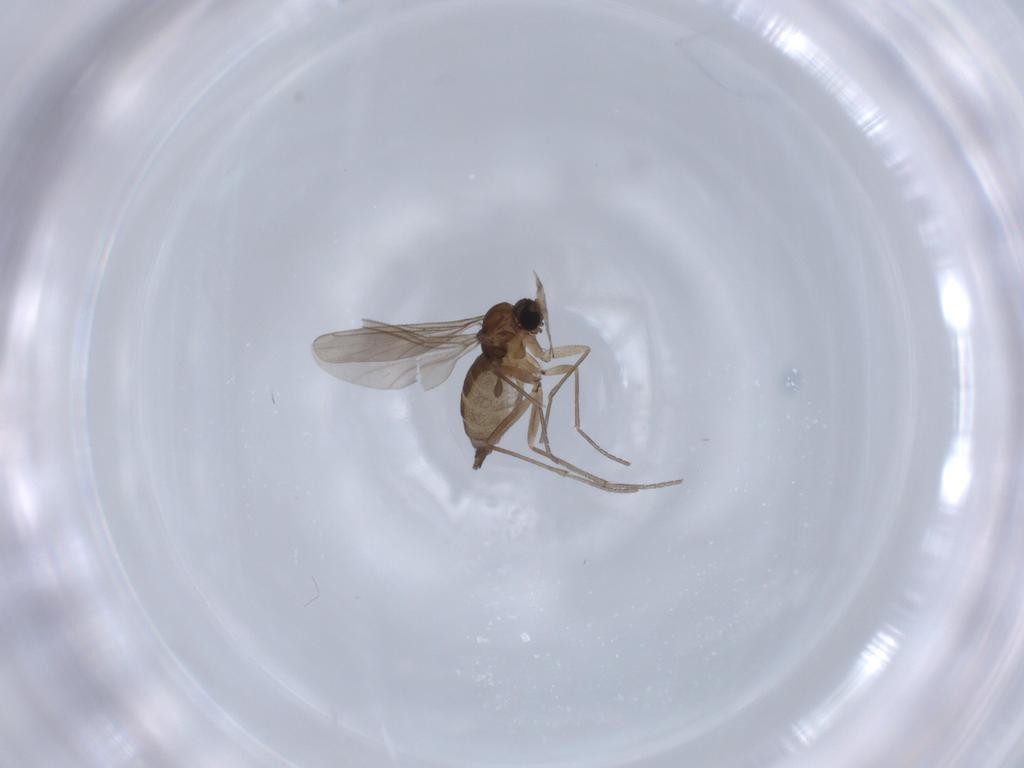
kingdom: Animalia
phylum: Arthropoda
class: Insecta
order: Diptera
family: Sciaridae
